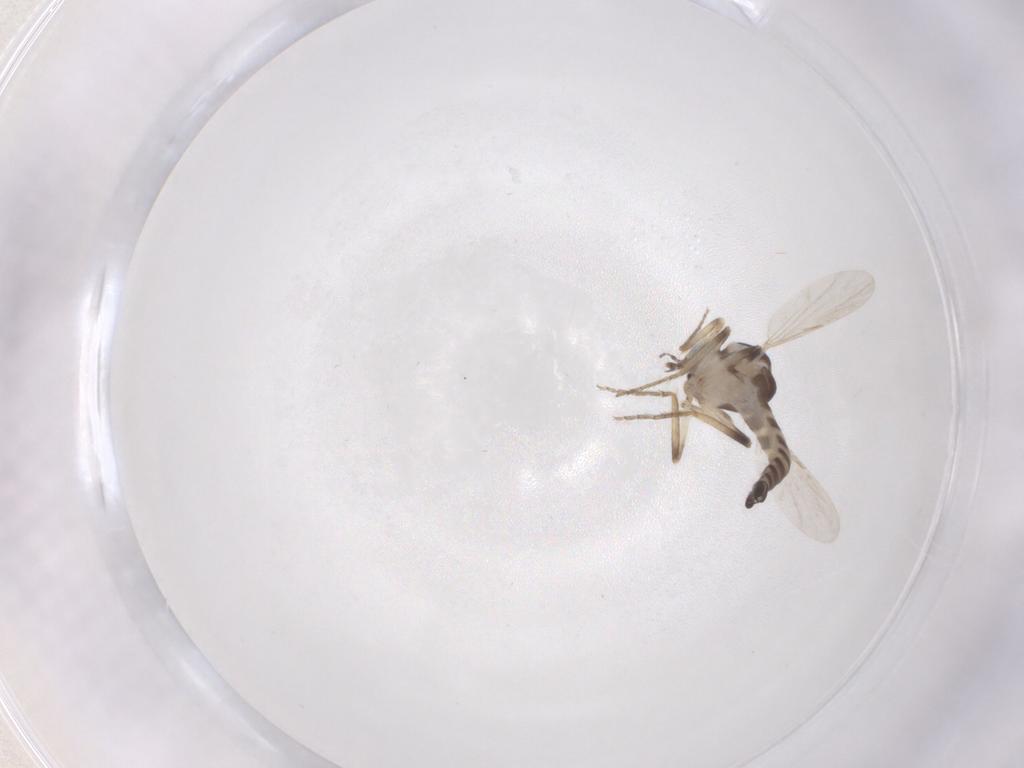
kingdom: Animalia
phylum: Arthropoda
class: Insecta
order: Diptera
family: Ceratopogonidae
